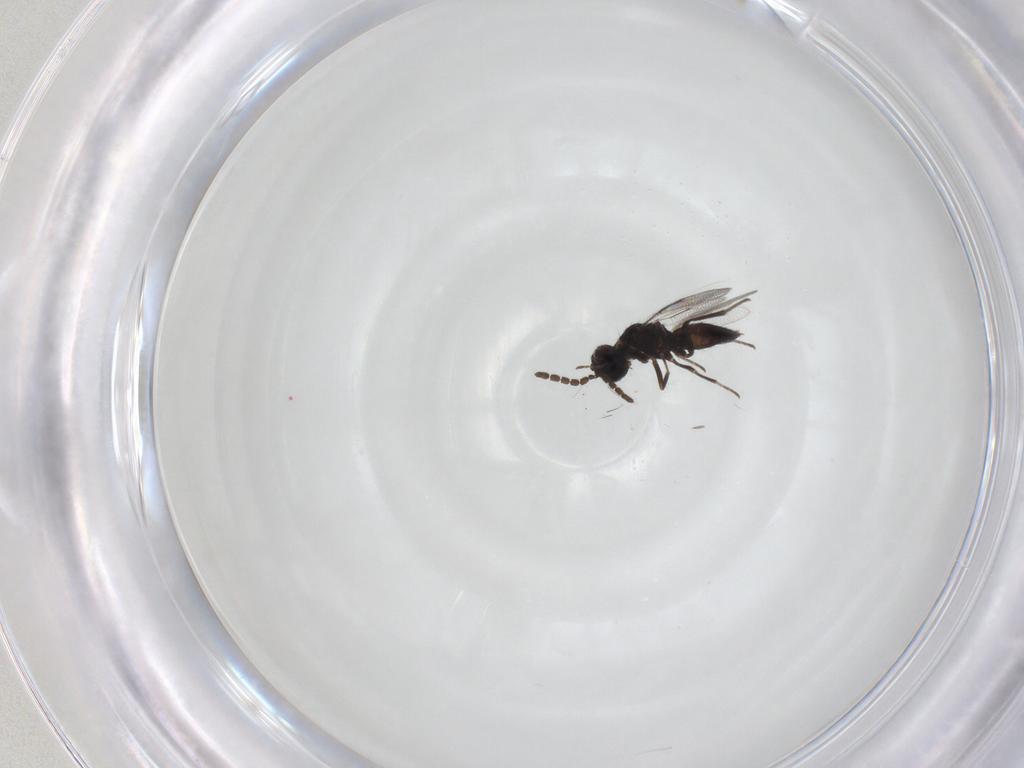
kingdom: Animalia
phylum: Arthropoda
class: Insecta
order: Hymenoptera
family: Eulophidae
